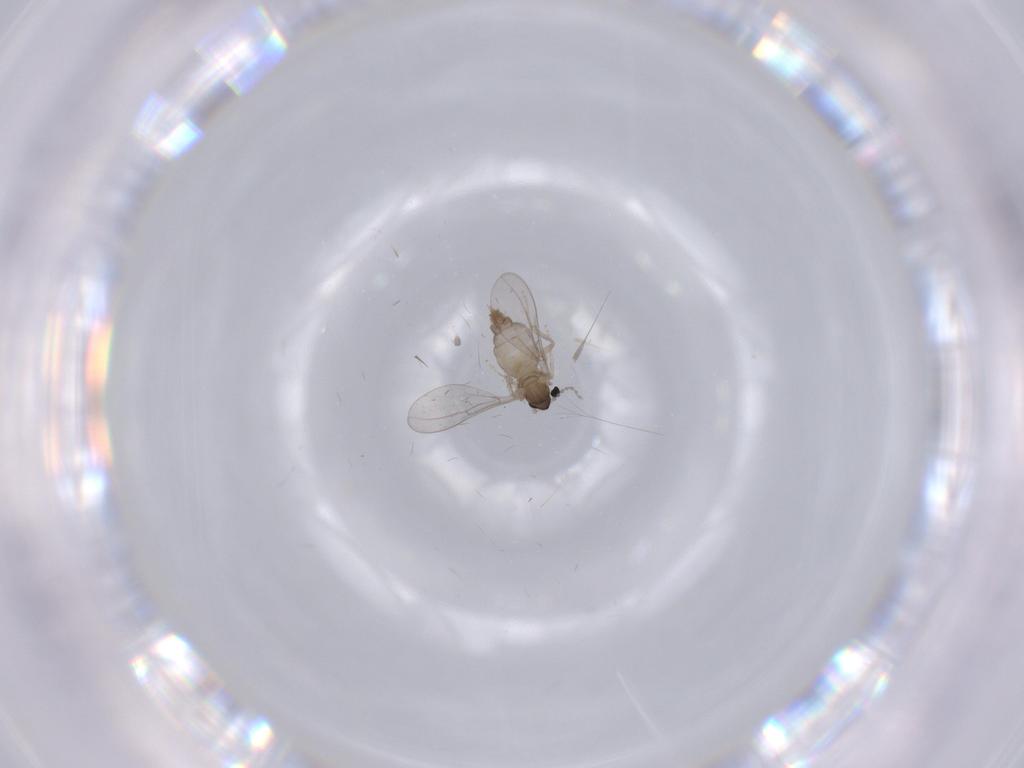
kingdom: Animalia
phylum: Arthropoda
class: Insecta
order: Diptera
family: Cecidomyiidae
